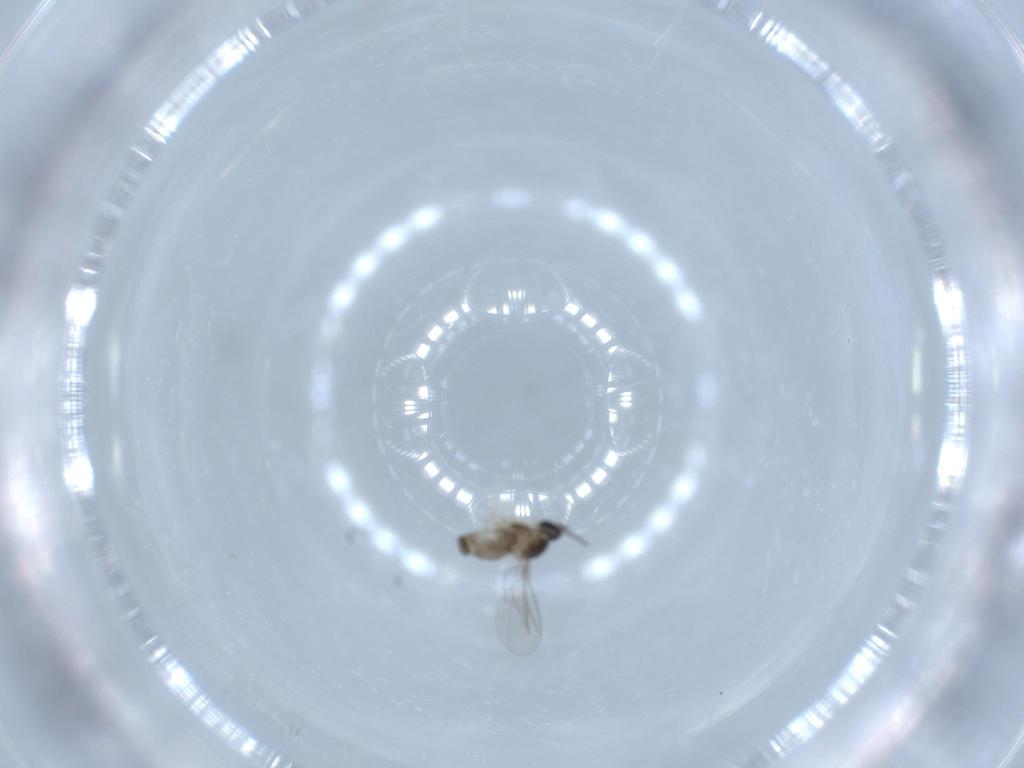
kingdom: Animalia
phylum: Arthropoda
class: Insecta
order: Diptera
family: Cecidomyiidae
